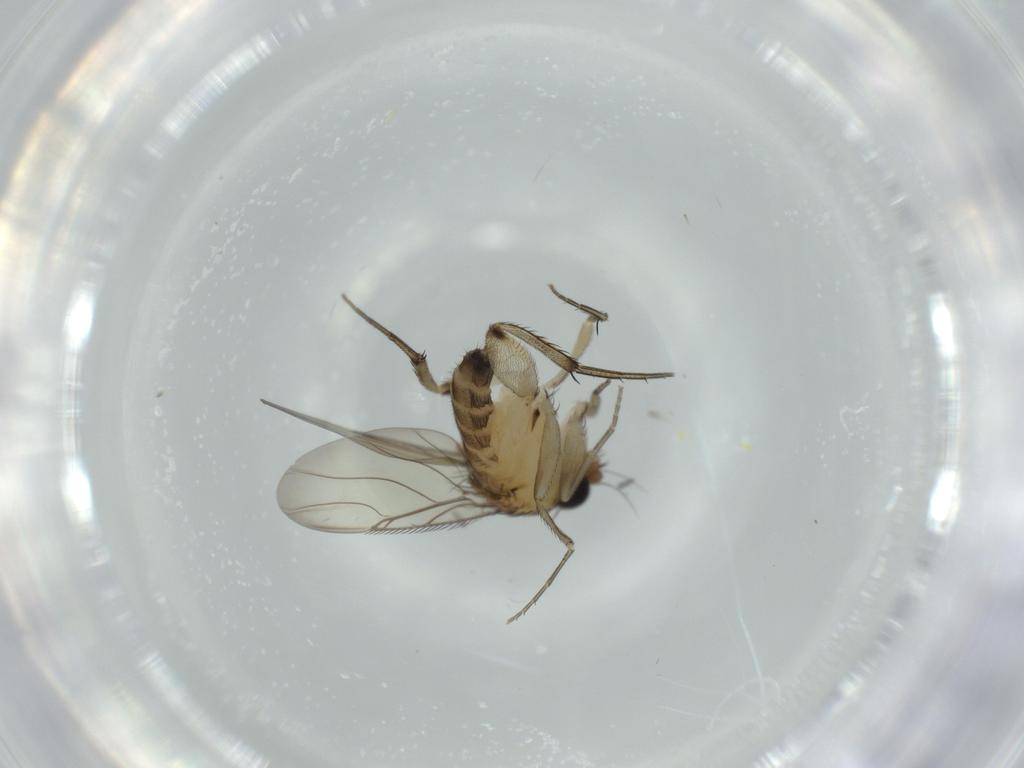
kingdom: Animalia
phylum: Arthropoda
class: Insecta
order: Diptera
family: Phoridae
